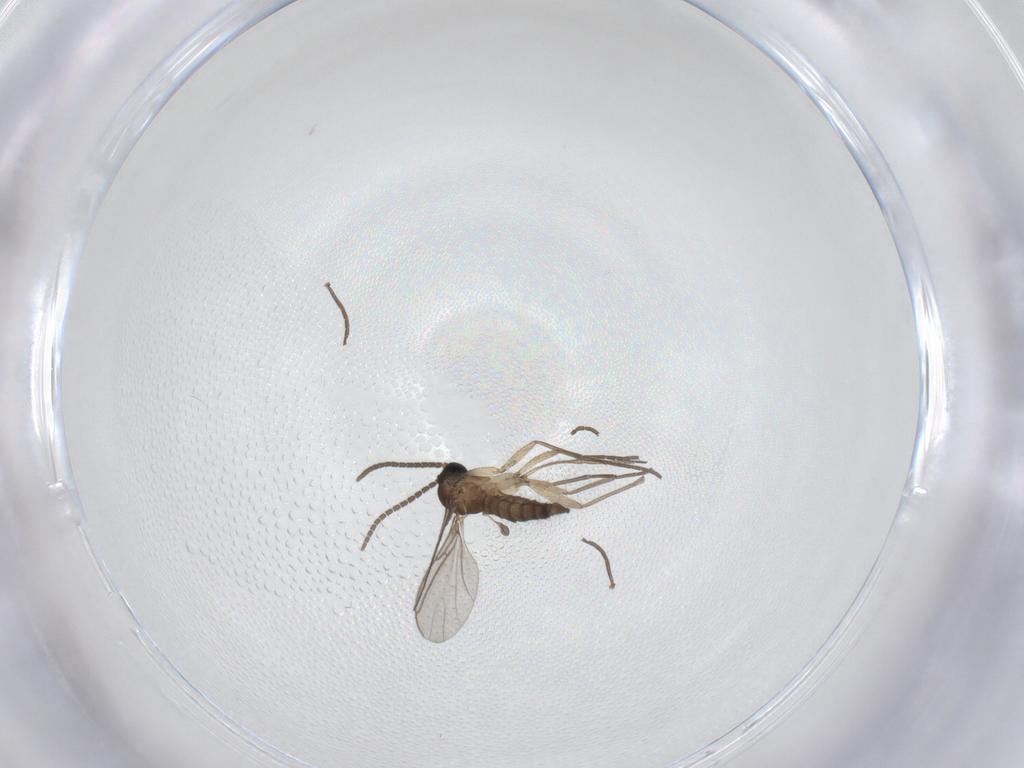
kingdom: Animalia
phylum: Arthropoda
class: Insecta
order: Diptera
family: Sciaridae
